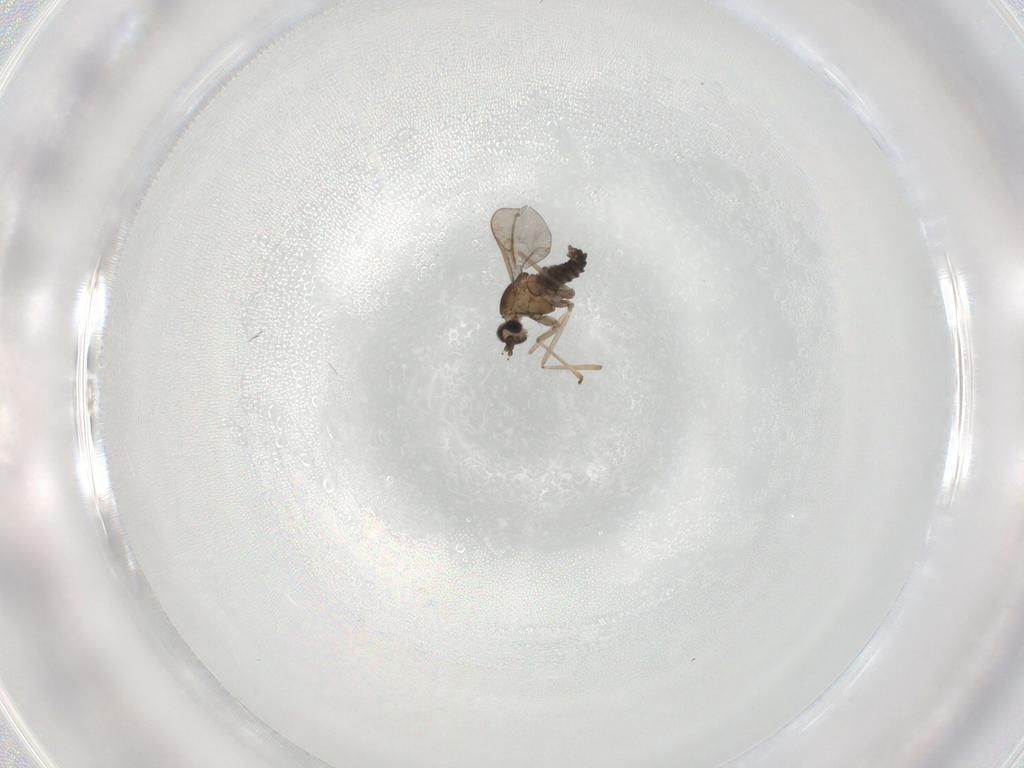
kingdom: Animalia
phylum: Arthropoda
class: Insecta
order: Diptera
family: Cecidomyiidae
